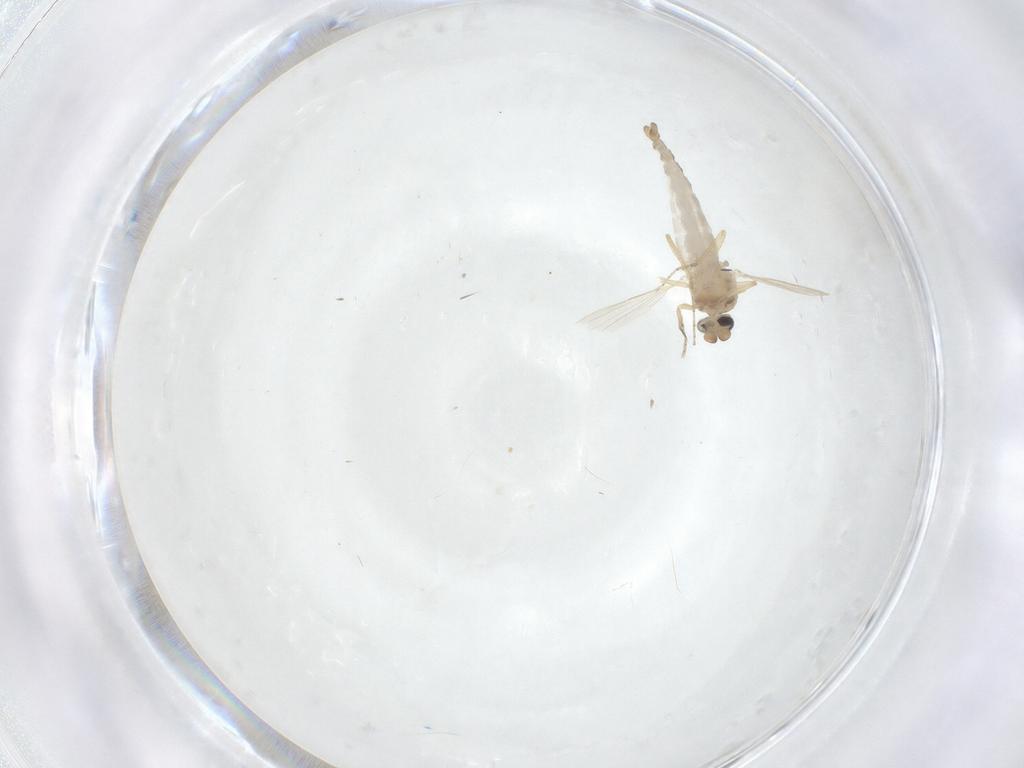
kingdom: Animalia
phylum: Arthropoda
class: Insecta
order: Diptera
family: Ceratopogonidae
